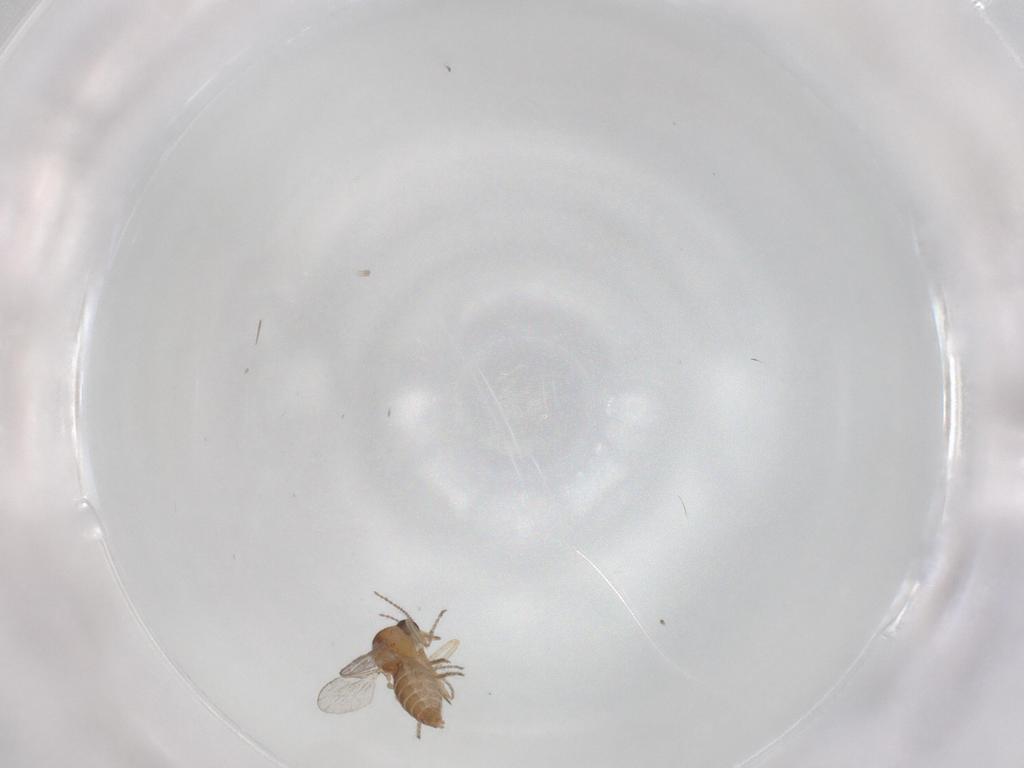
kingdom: Animalia
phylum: Arthropoda
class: Insecta
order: Diptera
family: Ceratopogonidae
